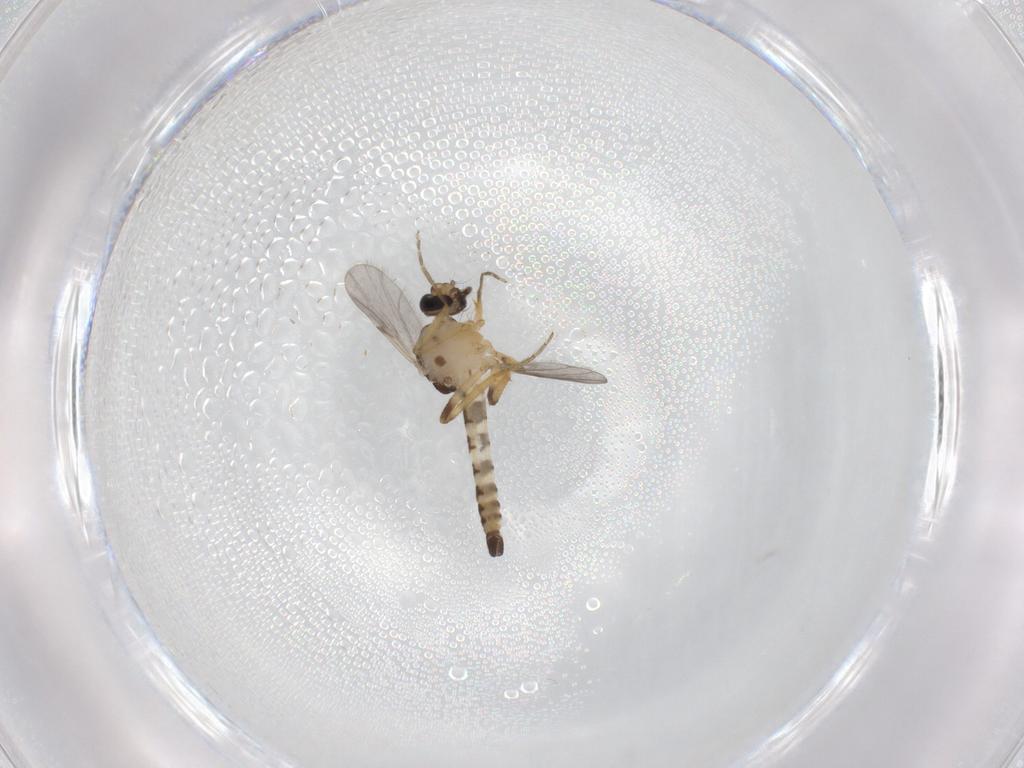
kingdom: Animalia
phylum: Arthropoda
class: Insecta
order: Diptera
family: Ceratopogonidae
